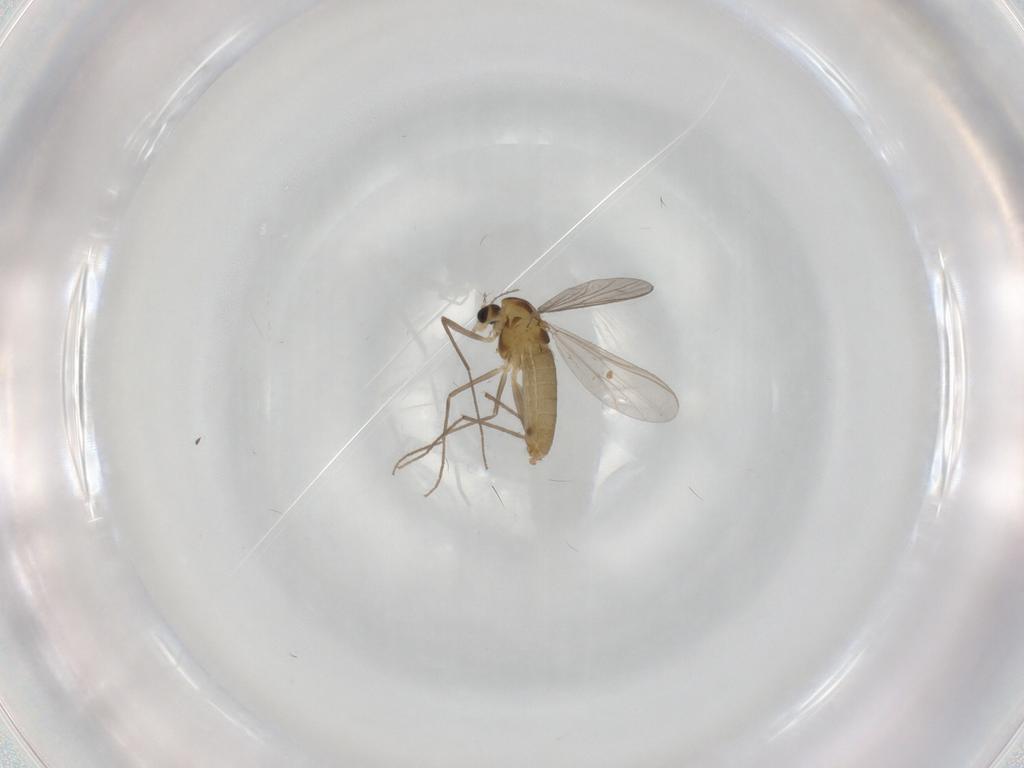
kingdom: Animalia
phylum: Arthropoda
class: Insecta
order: Diptera
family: Chironomidae
